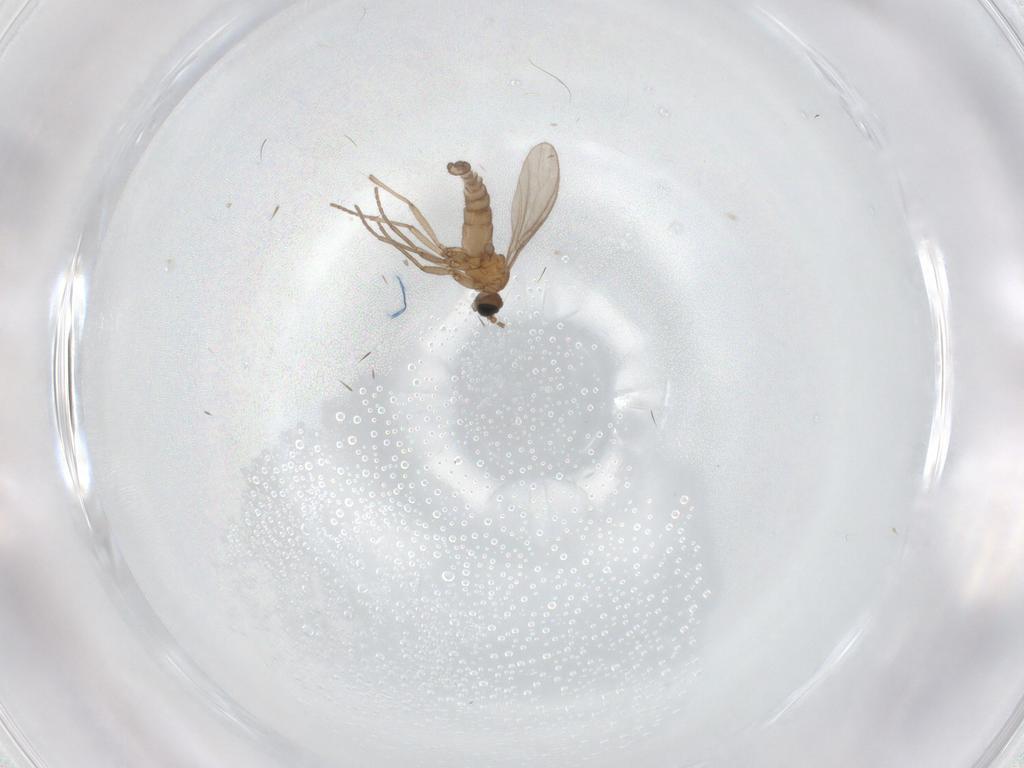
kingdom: Animalia
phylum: Arthropoda
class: Insecta
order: Diptera
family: Sciaridae
